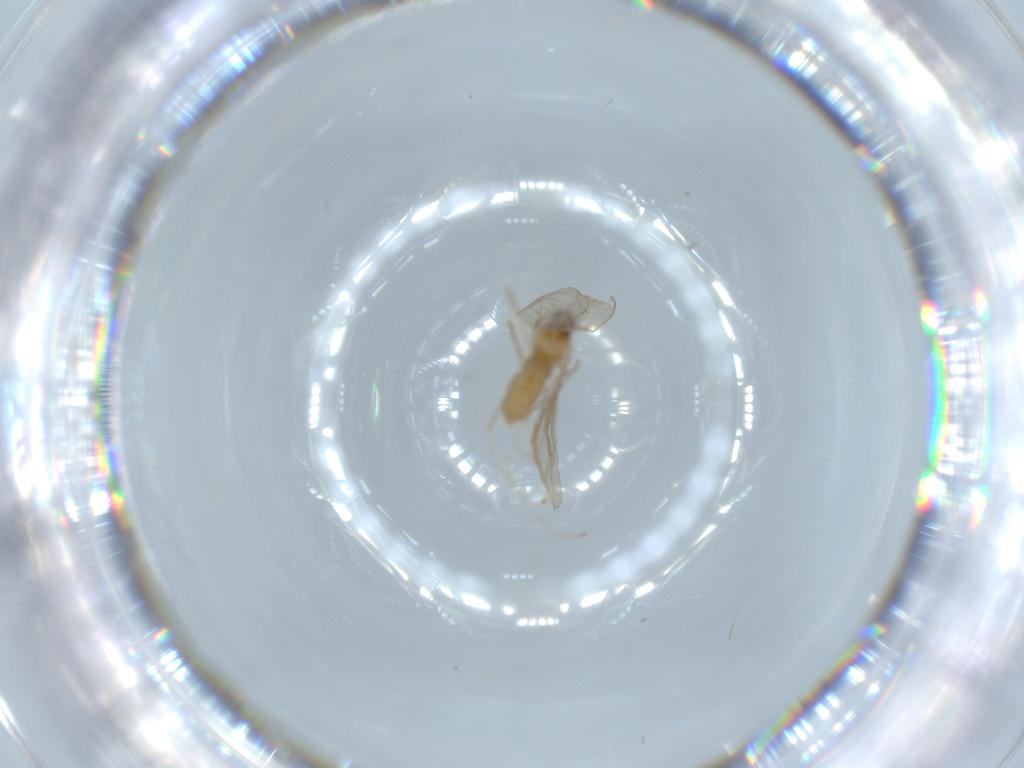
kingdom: Animalia
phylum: Arthropoda
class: Insecta
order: Diptera
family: Cecidomyiidae
